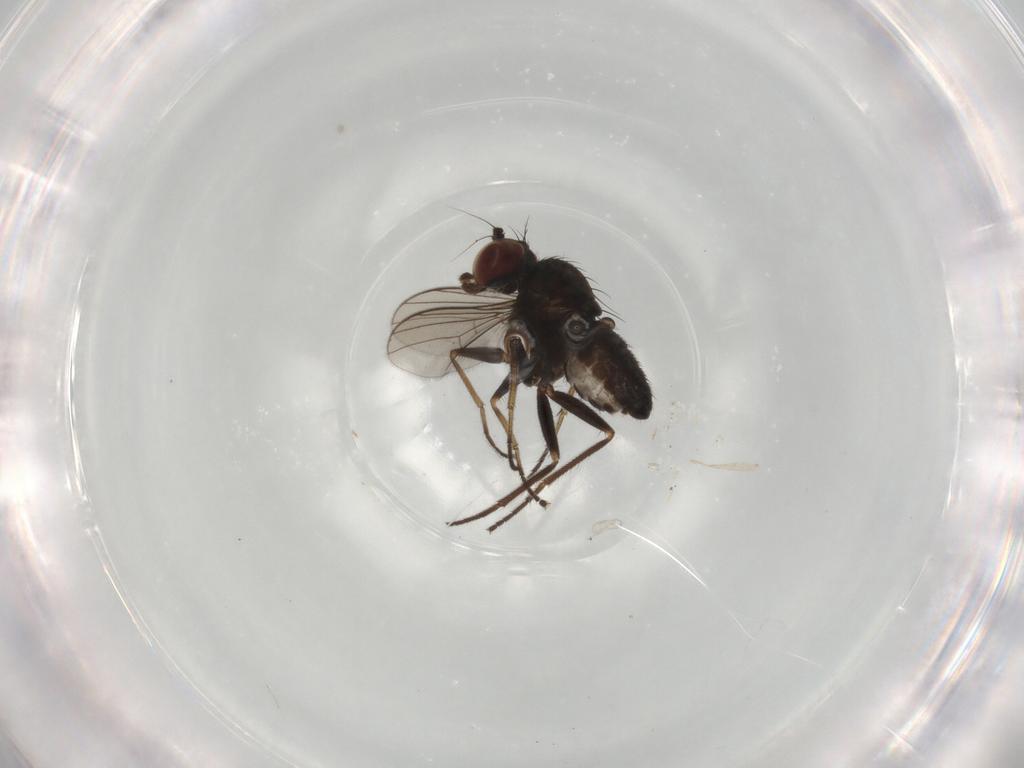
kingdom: Animalia
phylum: Arthropoda
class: Insecta
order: Diptera
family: Dolichopodidae
